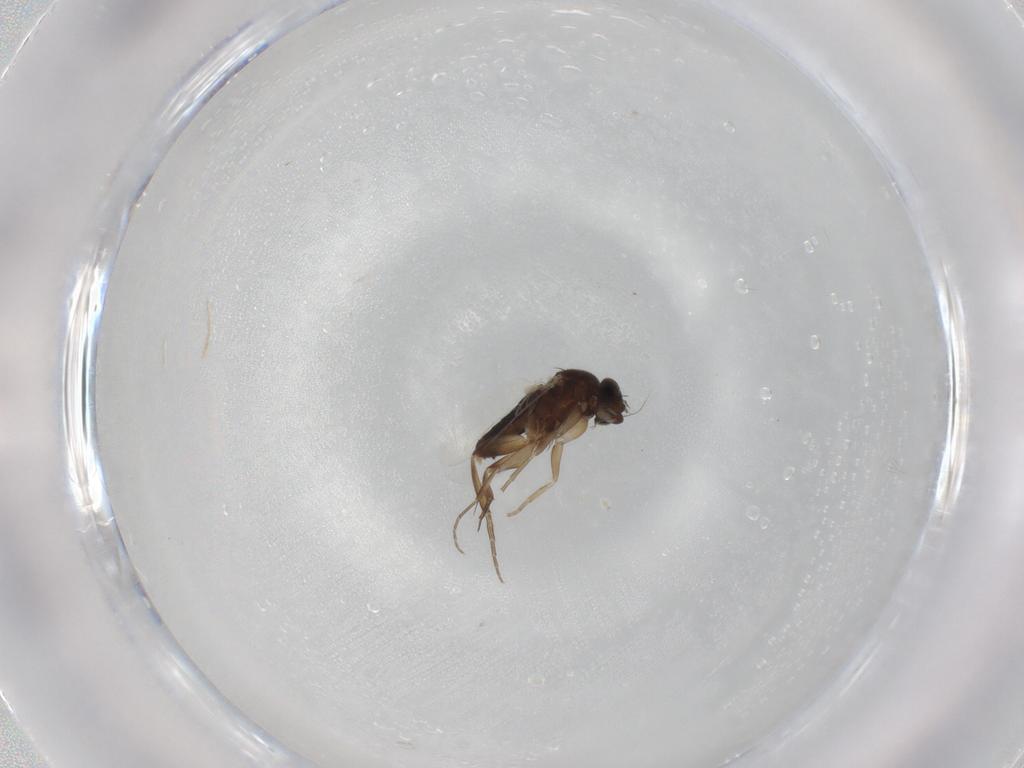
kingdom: Animalia
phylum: Arthropoda
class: Insecta
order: Diptera
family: Phoridae
